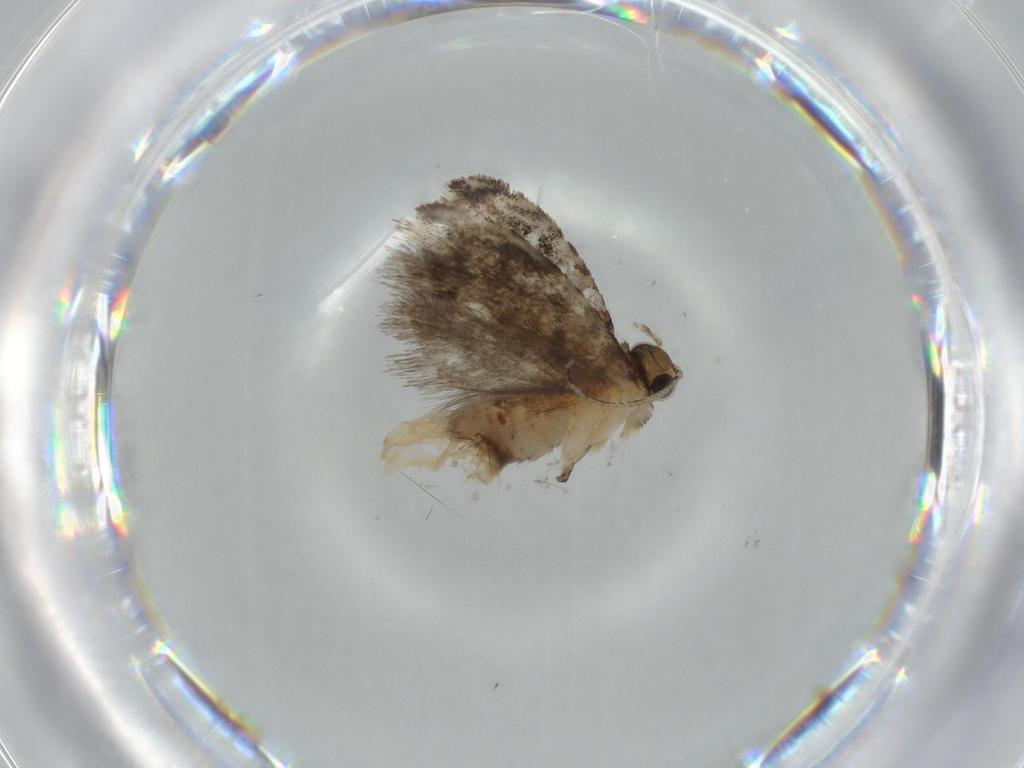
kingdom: Animalia
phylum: Arthropoda
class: Insecta
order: Lepidoptera
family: Tineidae
